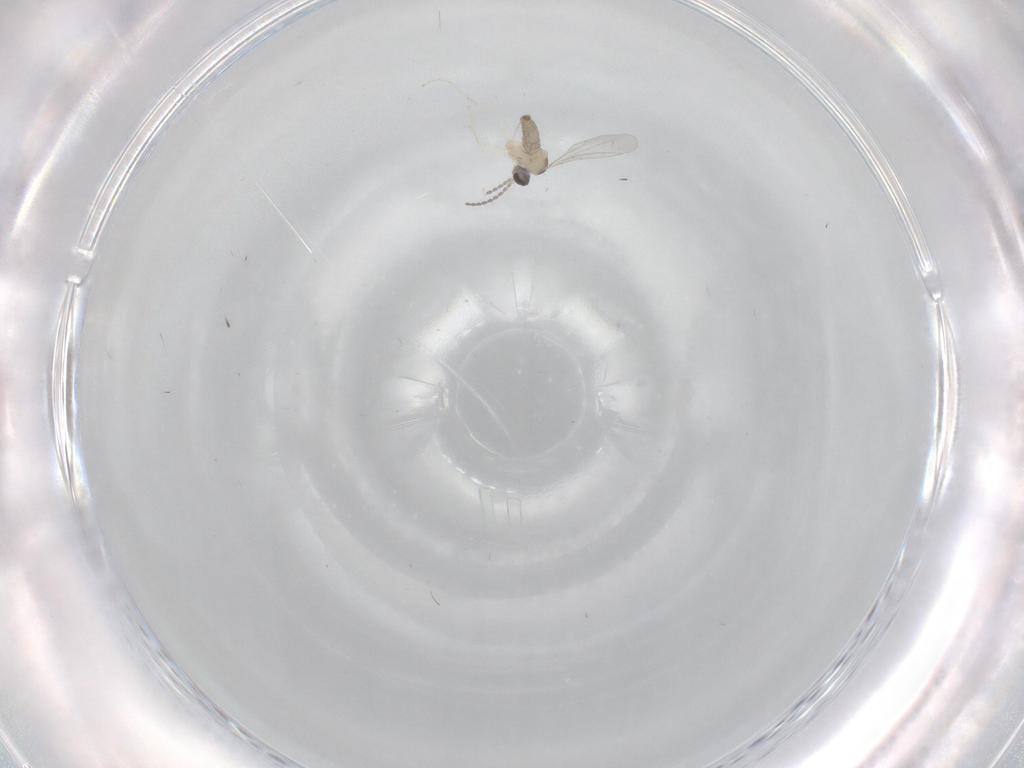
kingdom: Animalia
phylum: Arthropoda
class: Insecta
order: Diptera
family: Cecidomyiidae
